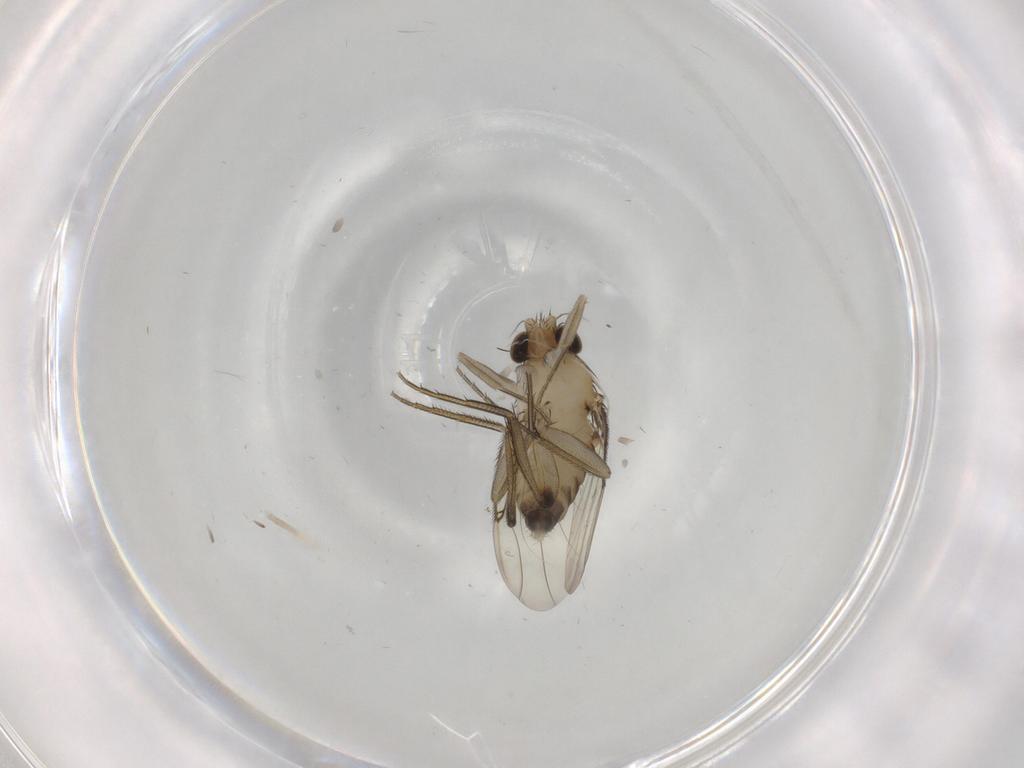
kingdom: Animalia
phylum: Arthropoda
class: Insecta
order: Diptera
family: Phoridae
